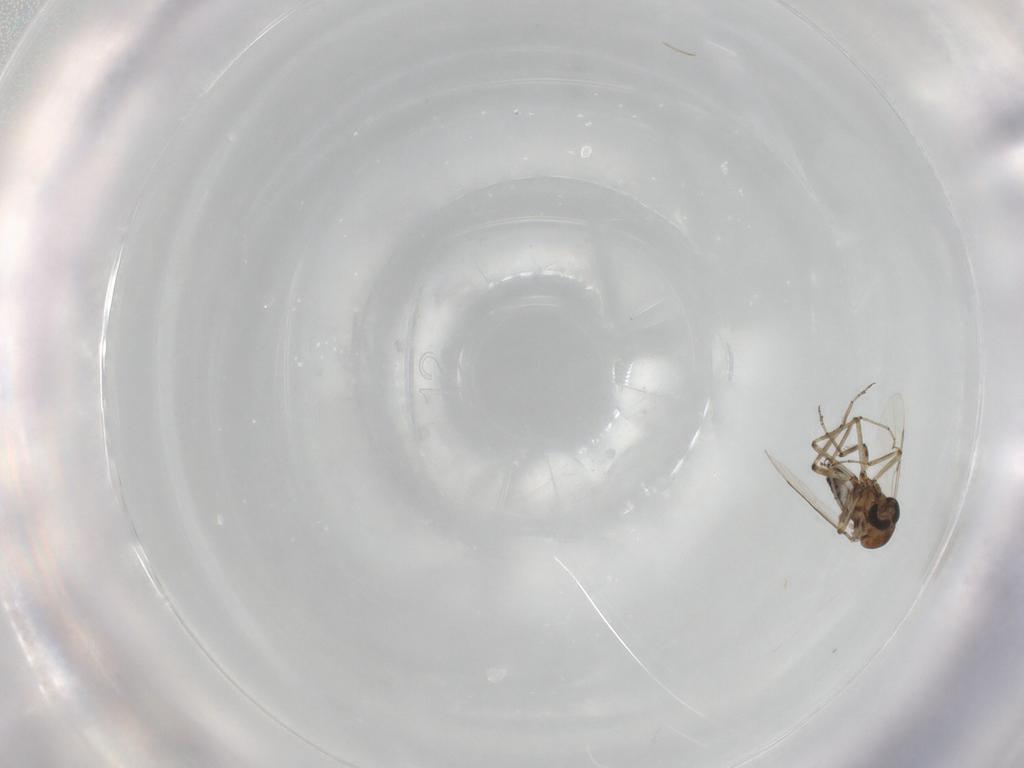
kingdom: Animalia
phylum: Arthropoda
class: Insecta
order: Diptera
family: Ceratopogonidae
